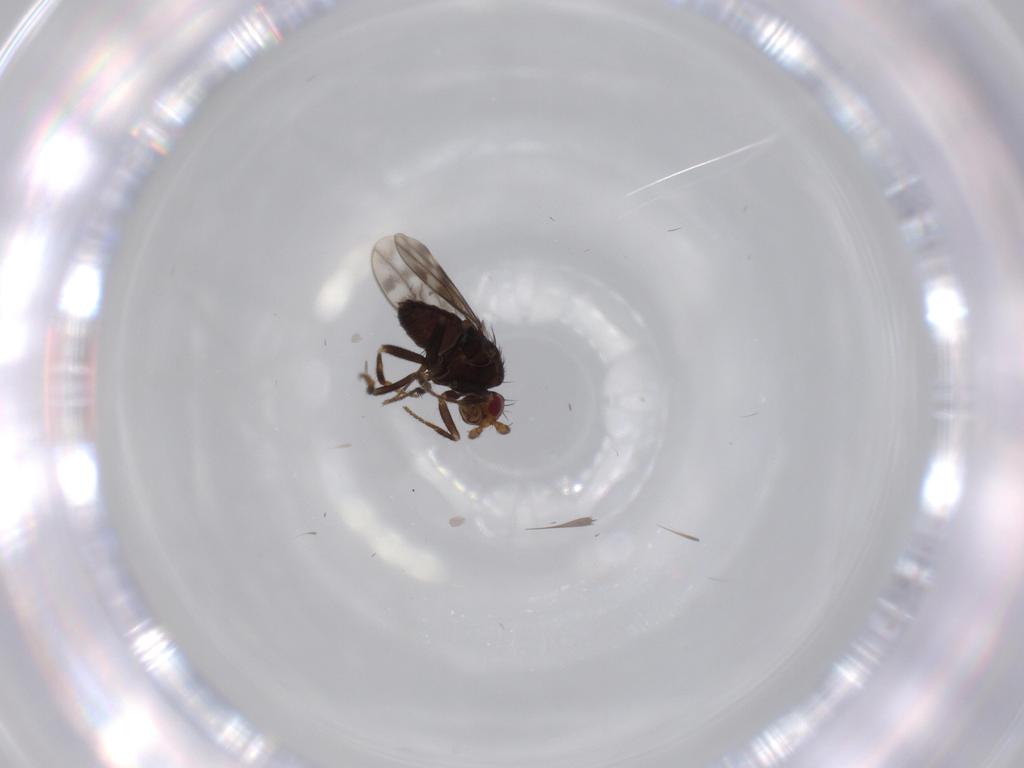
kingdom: Animalia
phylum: Arthropoda
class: Insecta
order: Diptera
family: Sphaeroceridae
